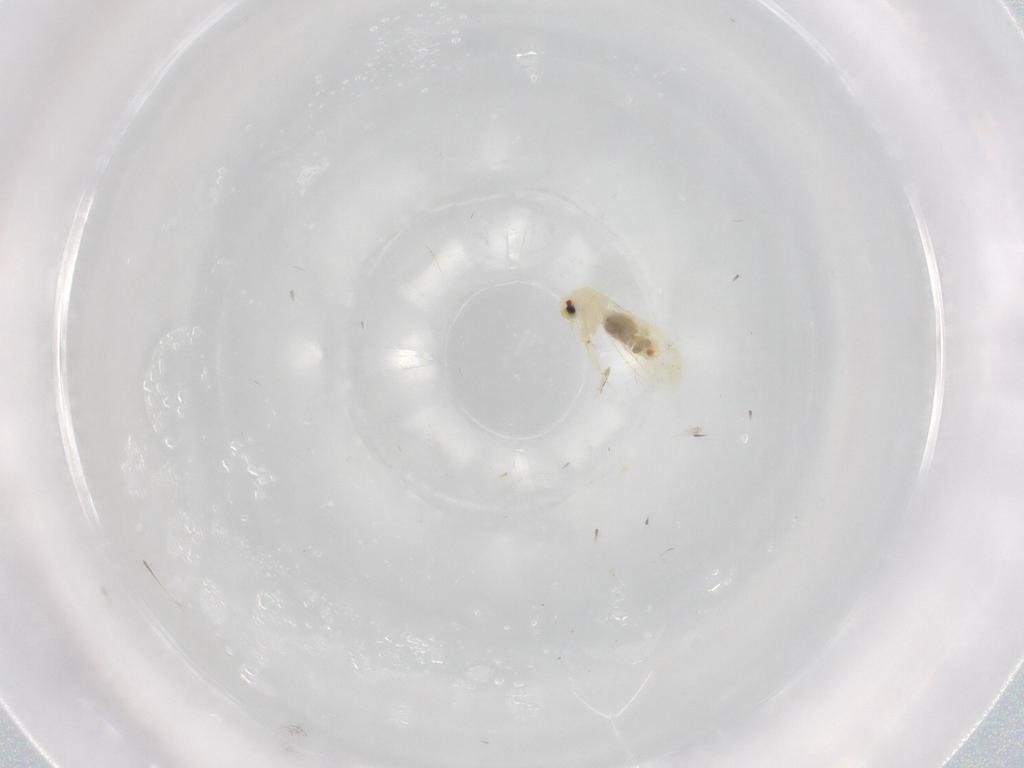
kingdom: Animalia
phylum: Arthropoda
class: Insecta
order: Hemiptera
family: Aleyrodidae
